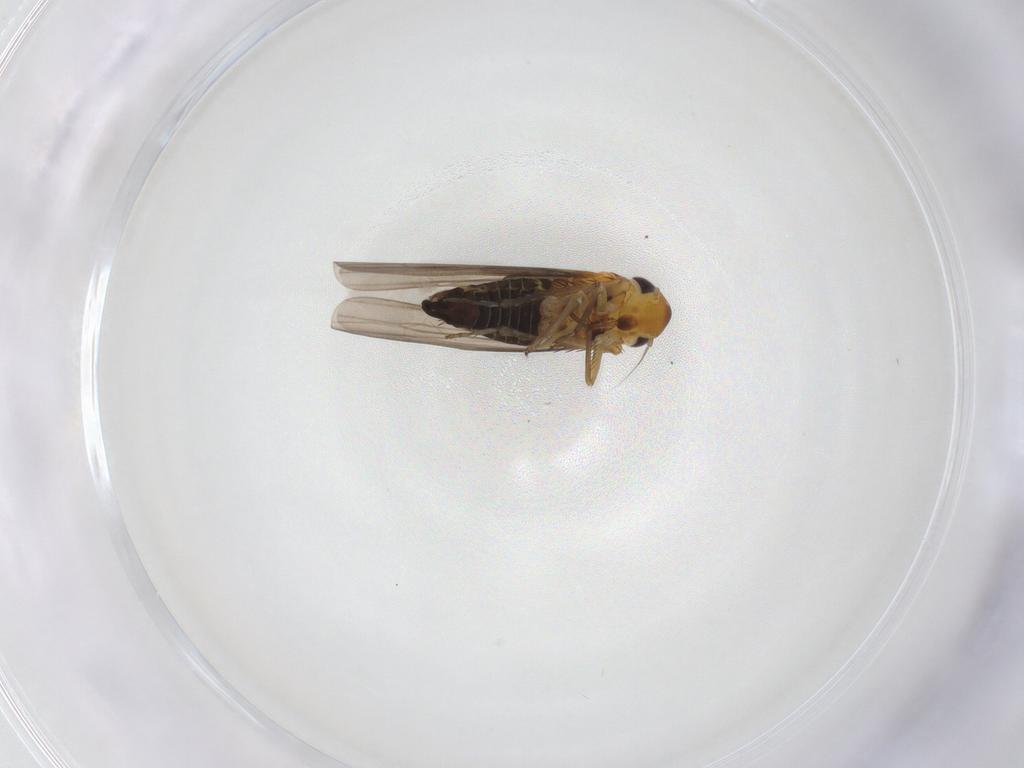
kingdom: Animalia
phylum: Arthropoda
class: Insecta
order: Hemiptera
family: Cicadellidae
